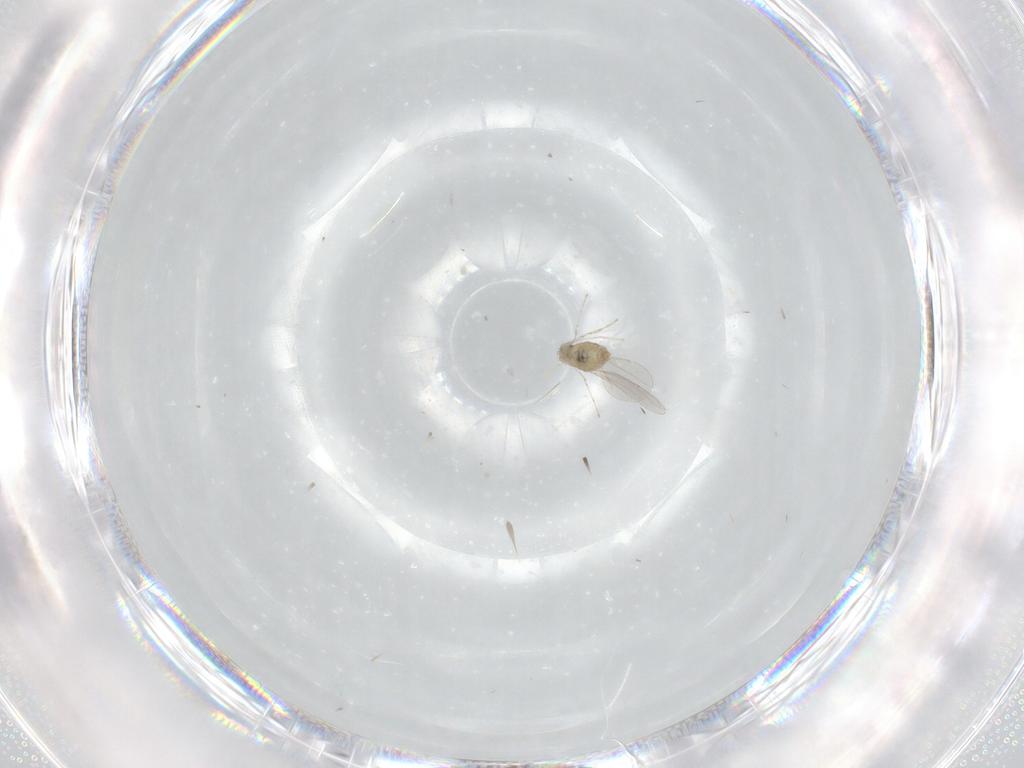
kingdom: Animalia
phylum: Arthropoda
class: Insecta
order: Diptera
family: Cecidomyiidae
